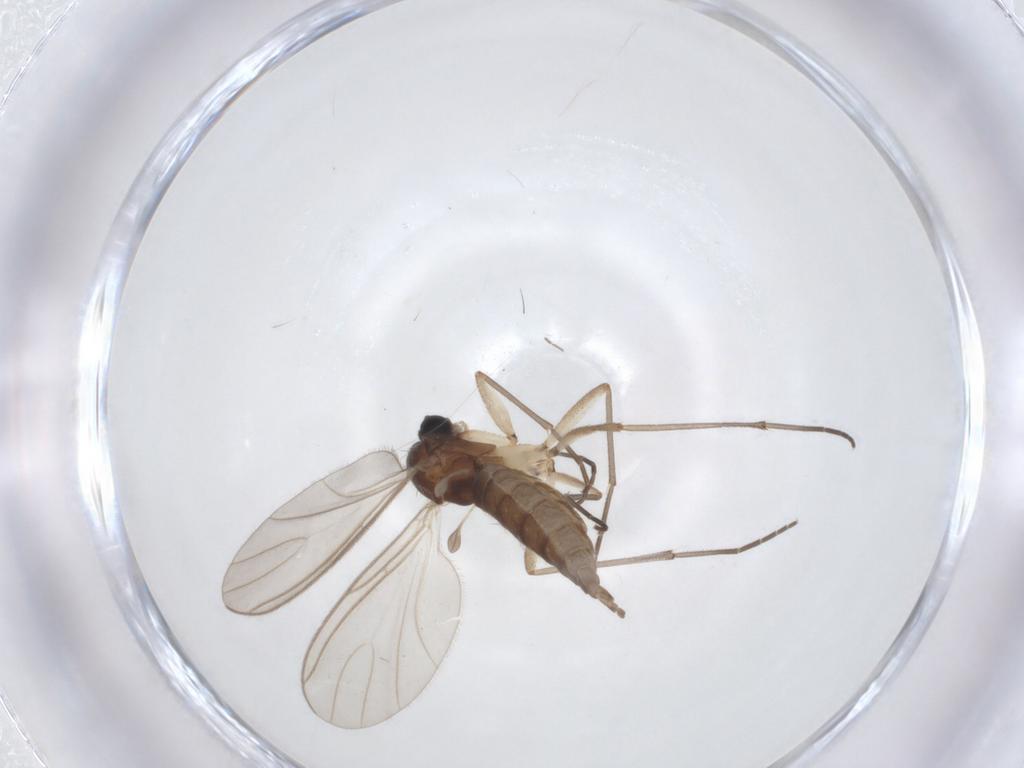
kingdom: Animalia
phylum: Arthropoda
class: Insecta
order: Diptera
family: Sciaridae
